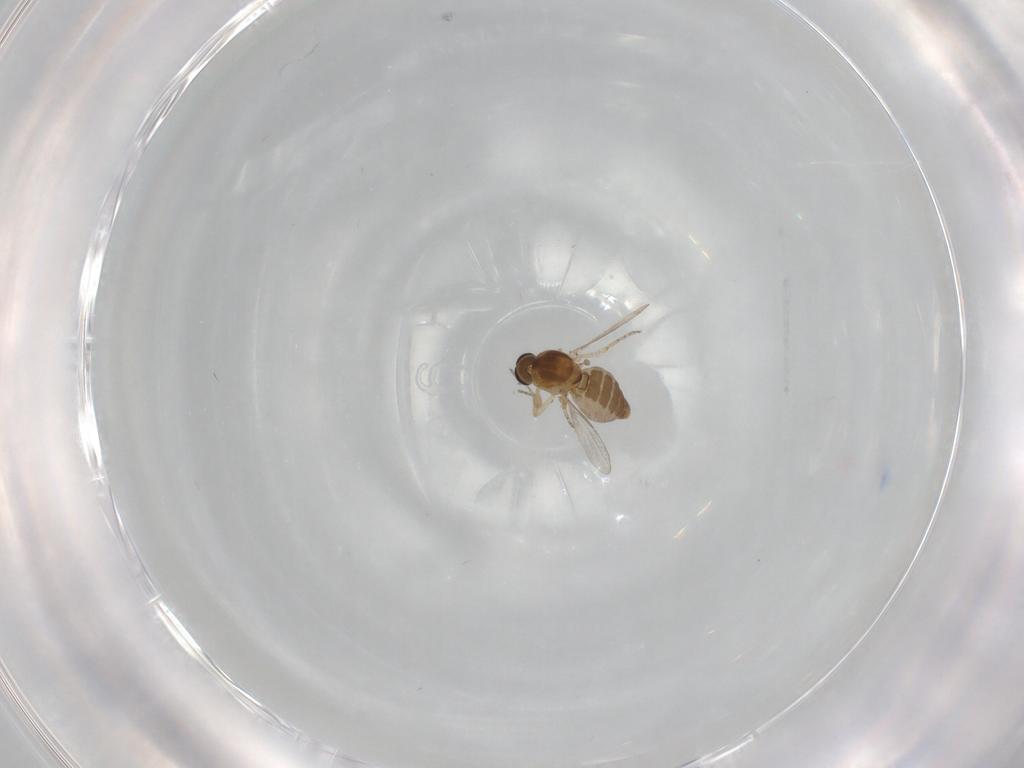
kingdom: Animalia
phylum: Arthropoda
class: Insecta
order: Diptera
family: Ceratopogonidae
